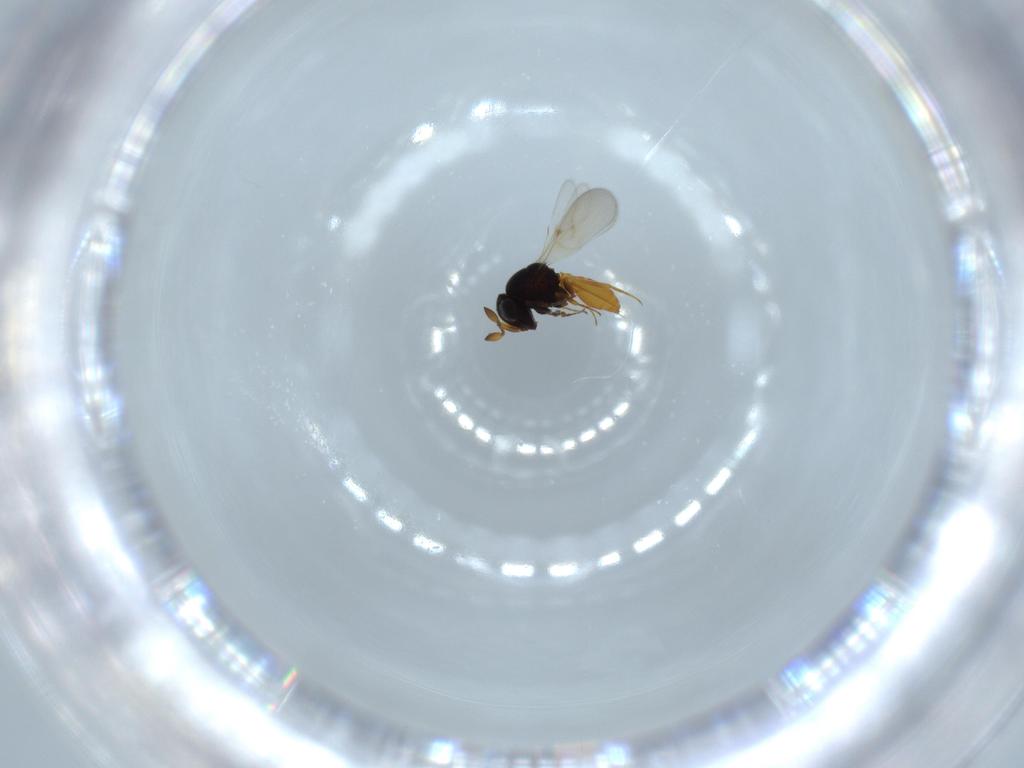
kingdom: Animalia
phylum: Arthropoda
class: Insecta
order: Hymenoptera
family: Scelionidae
